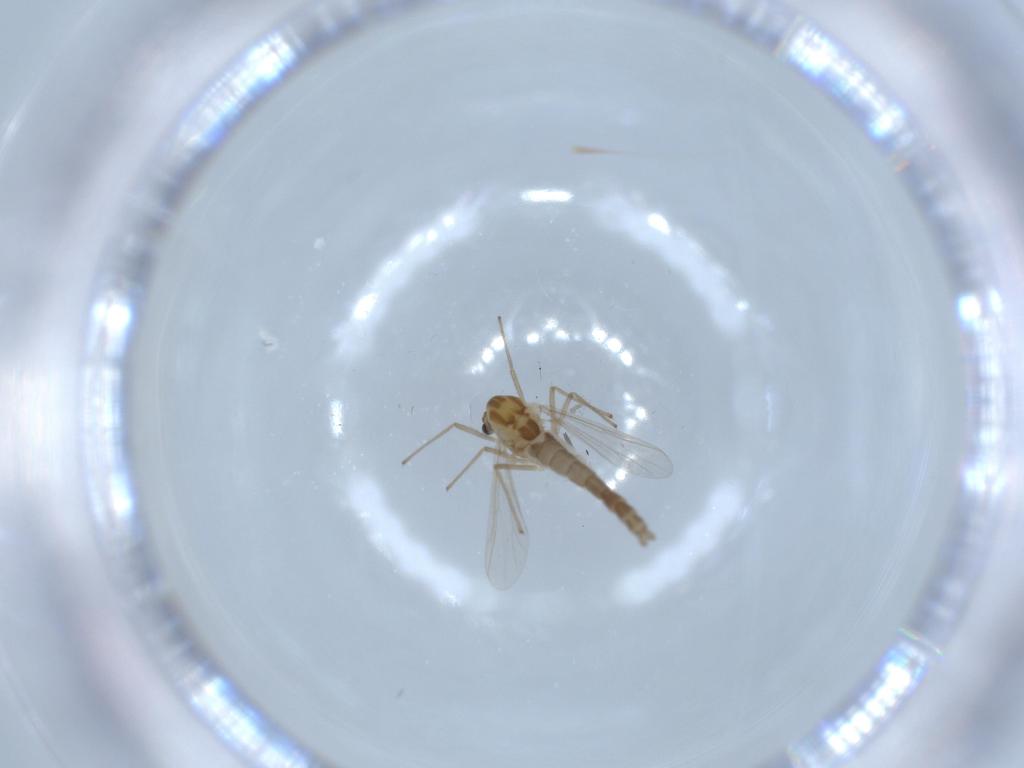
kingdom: Animalia
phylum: Arthropoda
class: Insecta
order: Diptera
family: Chironomidae
